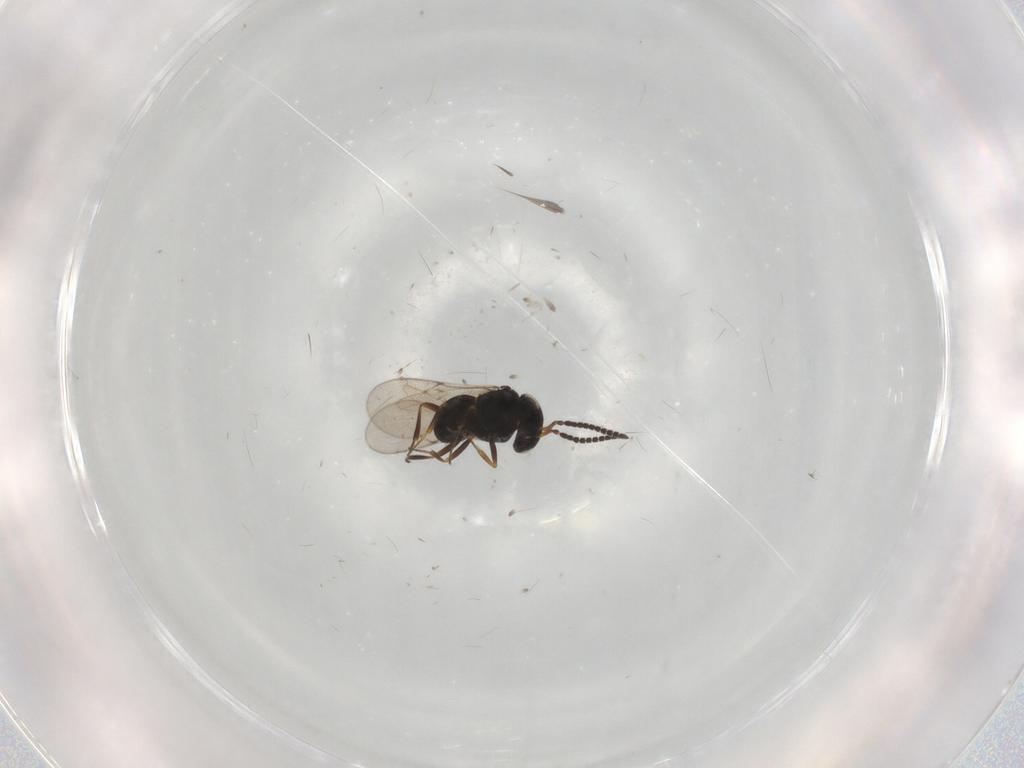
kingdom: Animalia
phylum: Arthropoda
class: Insecta
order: Hymenoptera
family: Scelionidae
